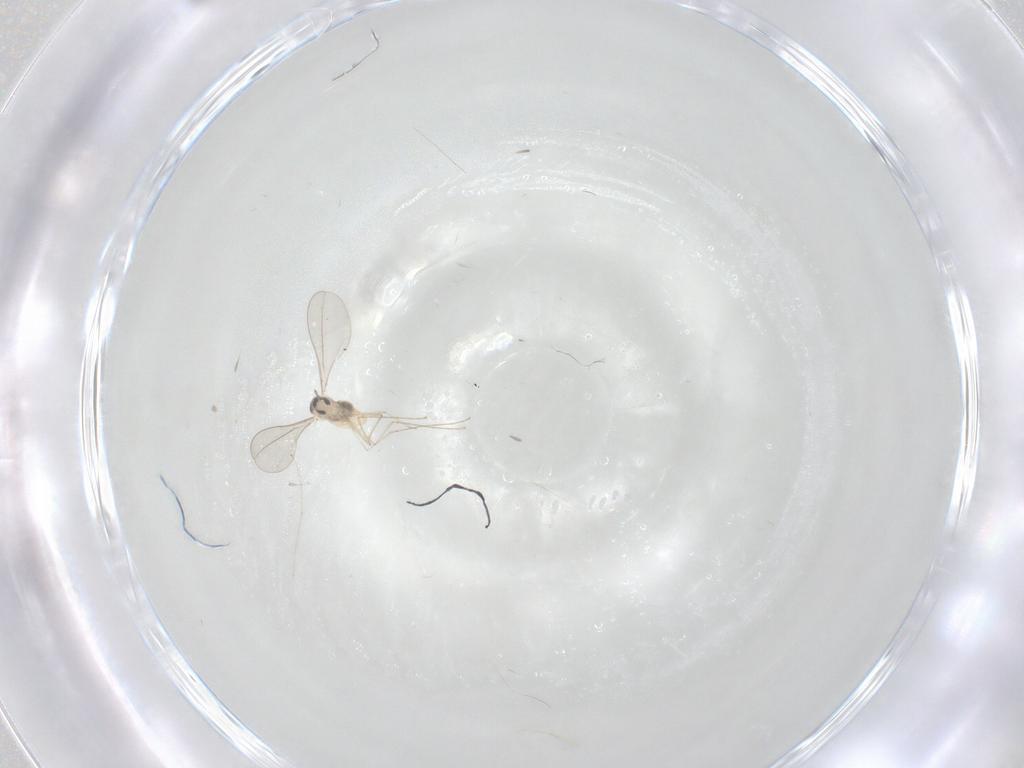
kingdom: Animalia
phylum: Arthropoda
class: Insecta
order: Diptera
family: Cecidomyiidae
